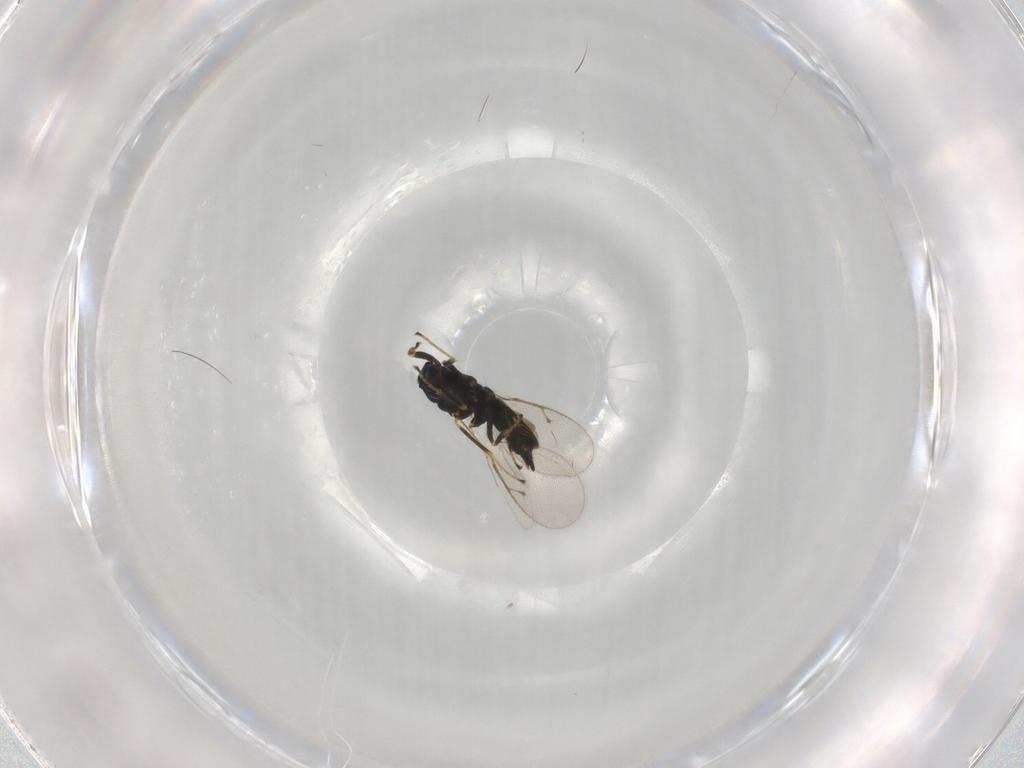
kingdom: Animalia
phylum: Arthropoda
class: Insecta
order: Hymenoptera
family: Pteromalidae
